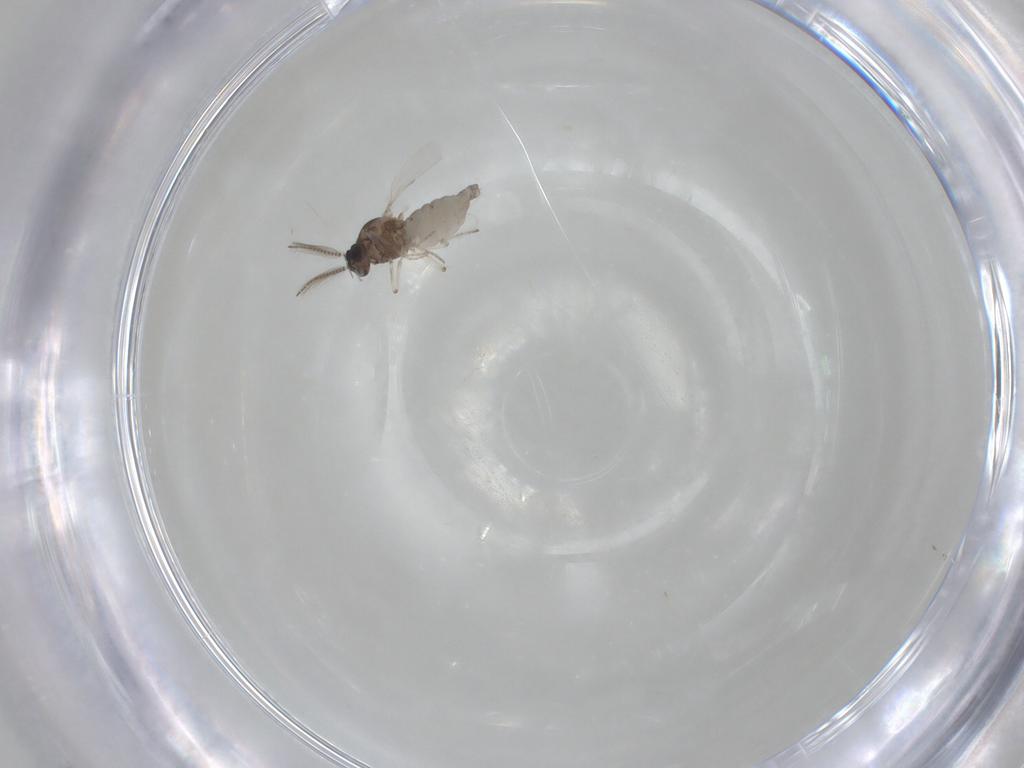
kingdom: Animalia
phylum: Arthropoda
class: Insecta
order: Diptera
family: Ceratopogonidae
